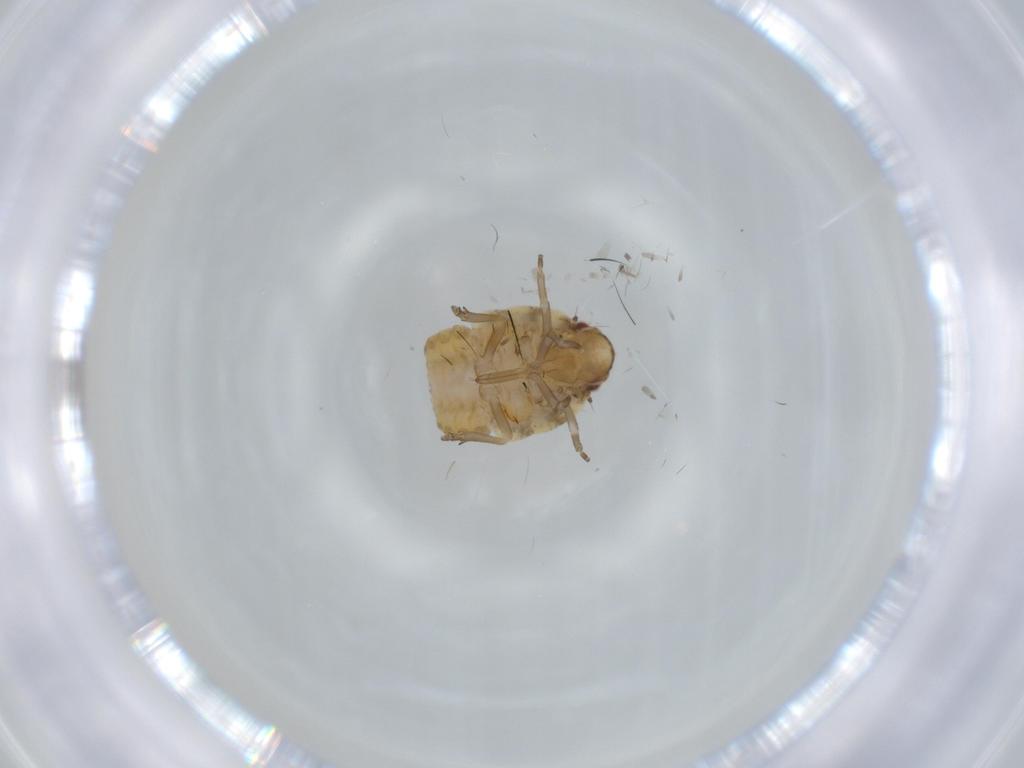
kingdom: Animalia
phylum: Arthropoda
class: Insecta
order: Hemiptera
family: Flatidae
